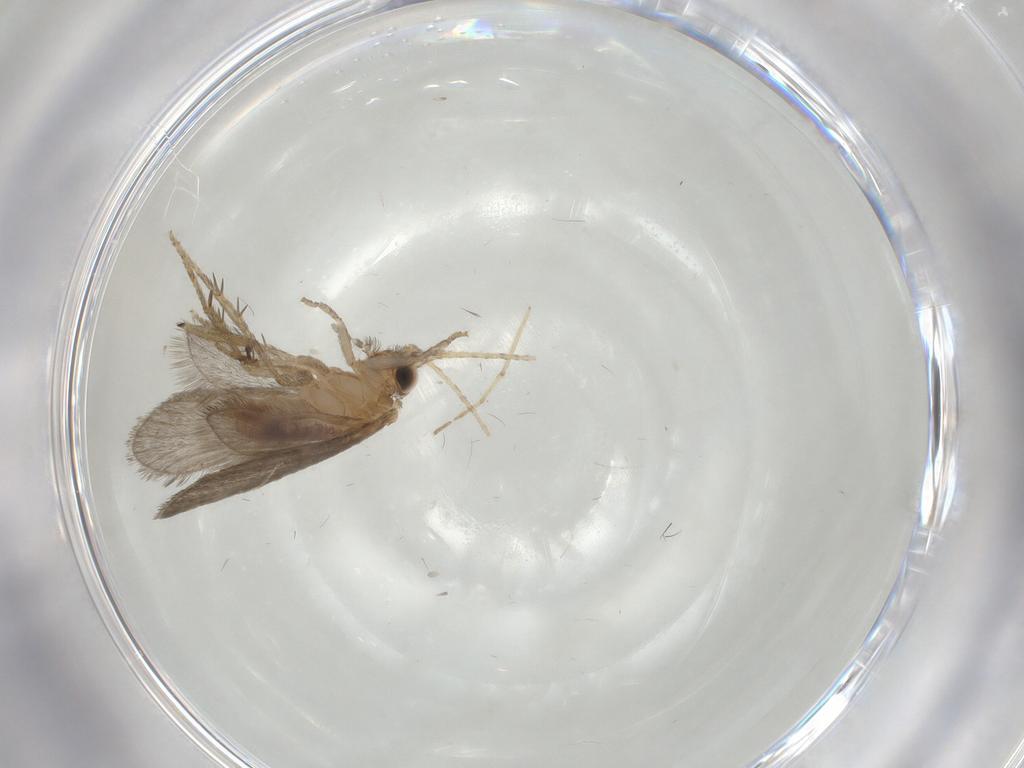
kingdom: Animalia
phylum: Arthropoda
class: Insecta
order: Trichoptera
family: Glossosomatidae
